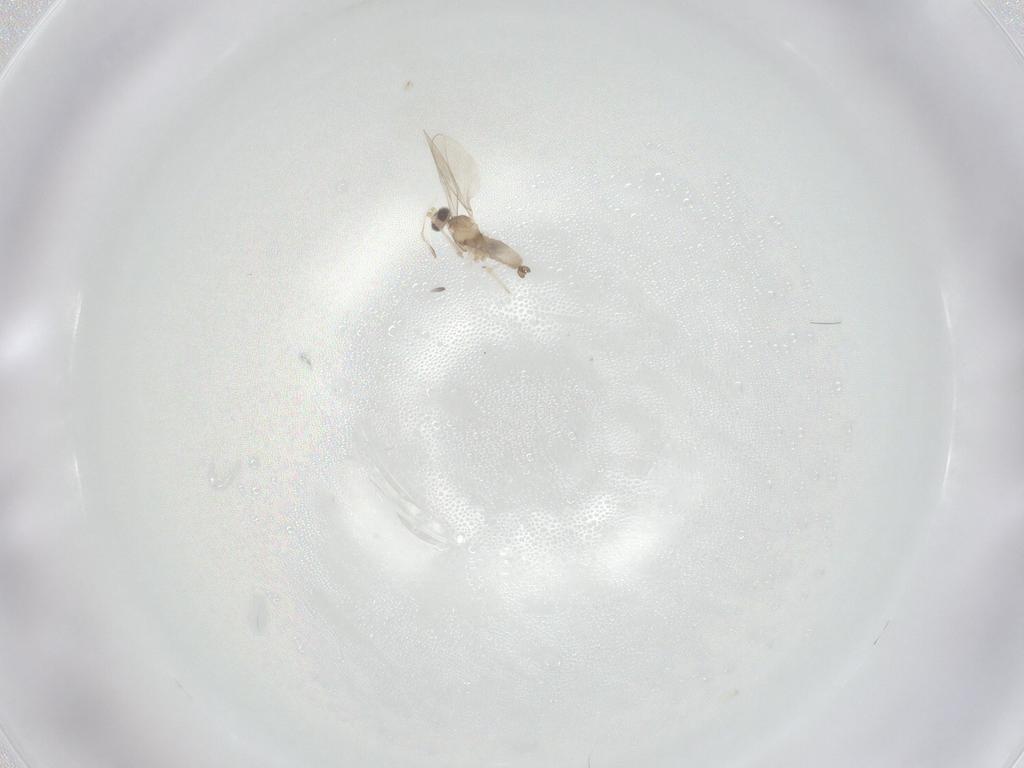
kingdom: Animalia
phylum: Arthropoda
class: Insecta
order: Diptera
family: Cecidomyiidae
